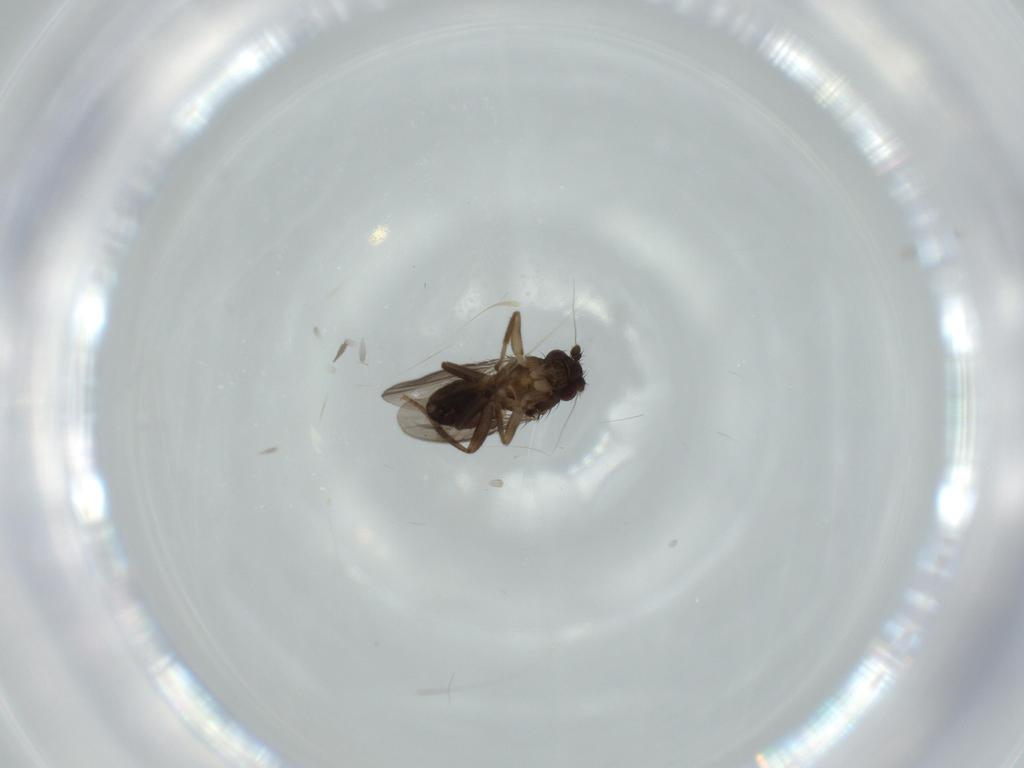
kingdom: Animalia
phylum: Arthropoda
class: Insecta
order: Diptera
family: Sphaeroceridae
